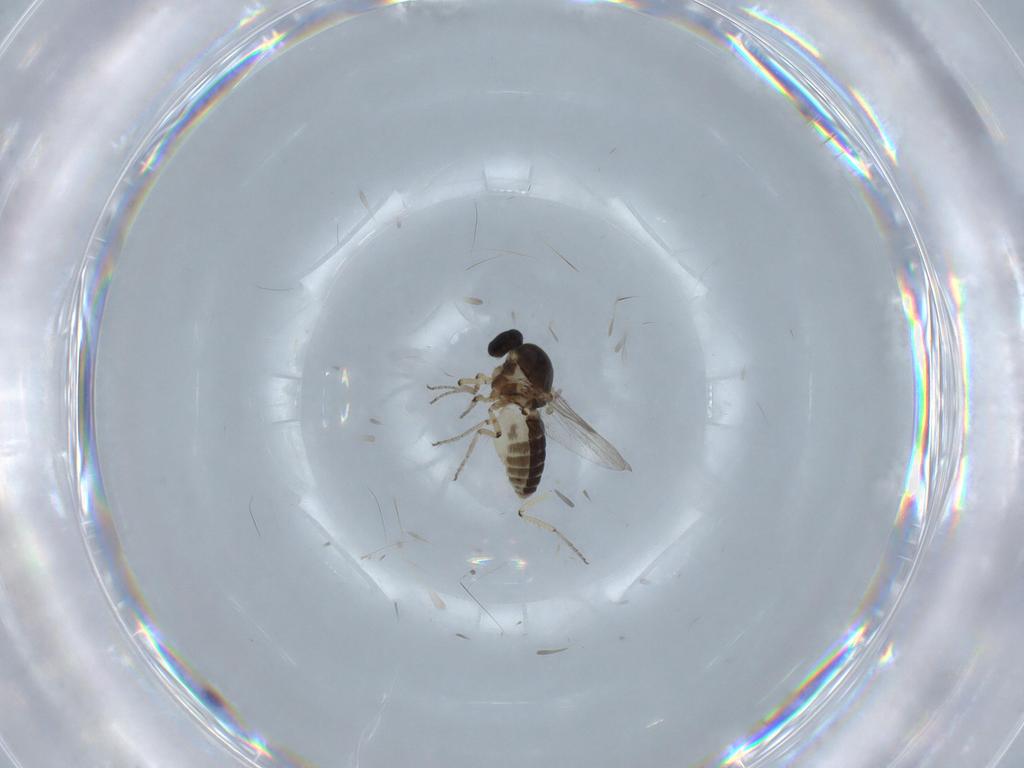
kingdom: Animalia
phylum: Arthropoda
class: Insecta
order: Diptera
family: Ceratopogonidae
